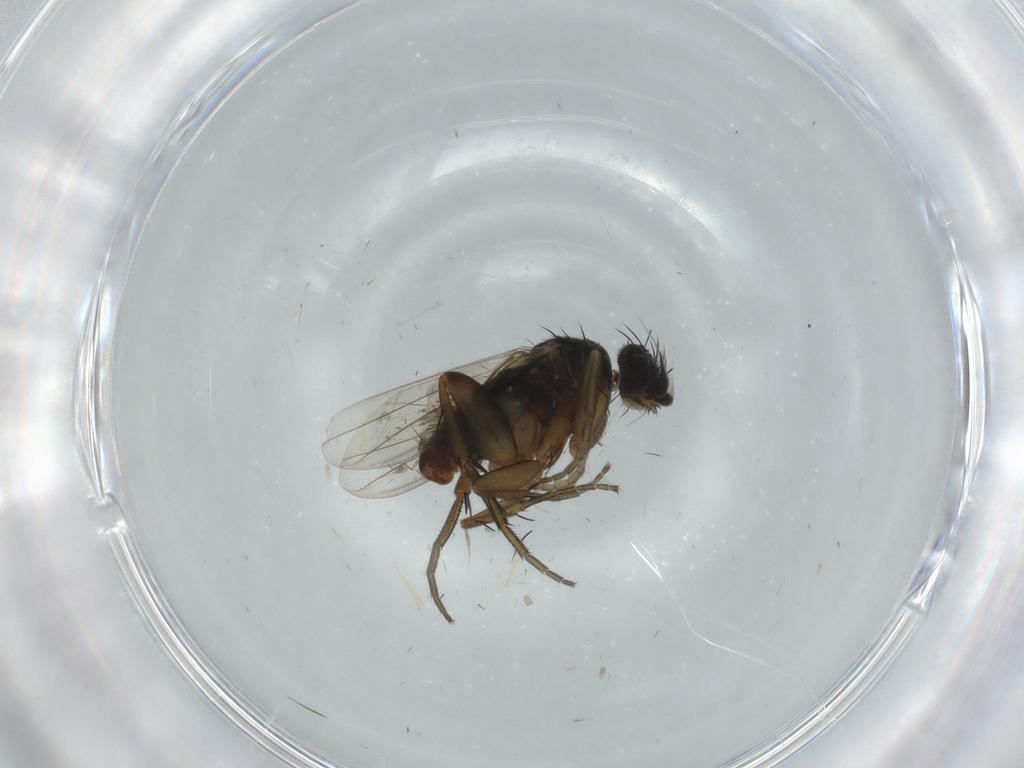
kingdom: Animalia
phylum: Arthropoda
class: Insecta
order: Diptera
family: Phoridae
